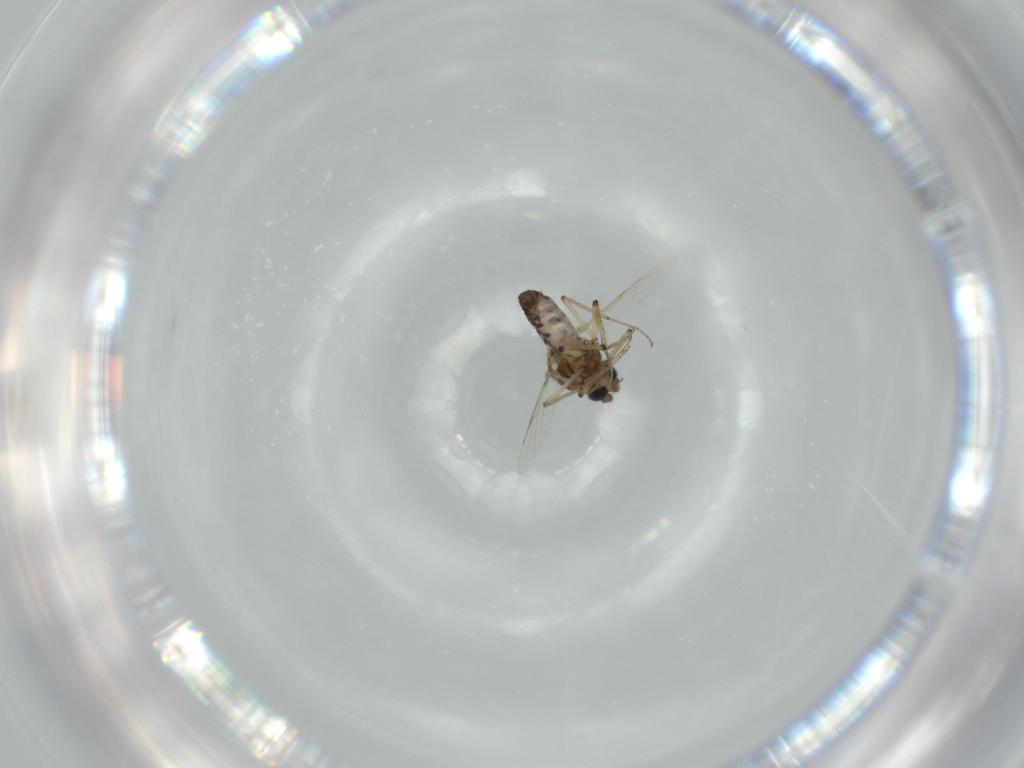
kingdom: Animalia
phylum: Arthropoda
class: Insecta
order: Diptera
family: Ceratopogonidae
